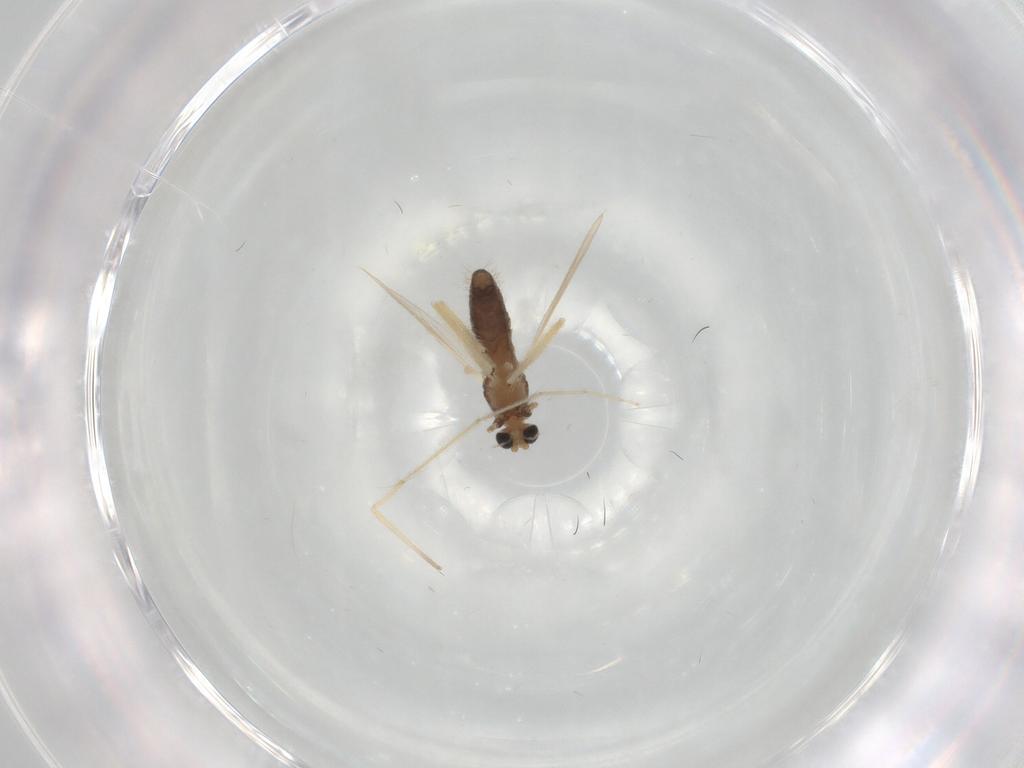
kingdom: Animalia
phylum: Arthropoda
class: Insecta
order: Diptera
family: Chironomidae
